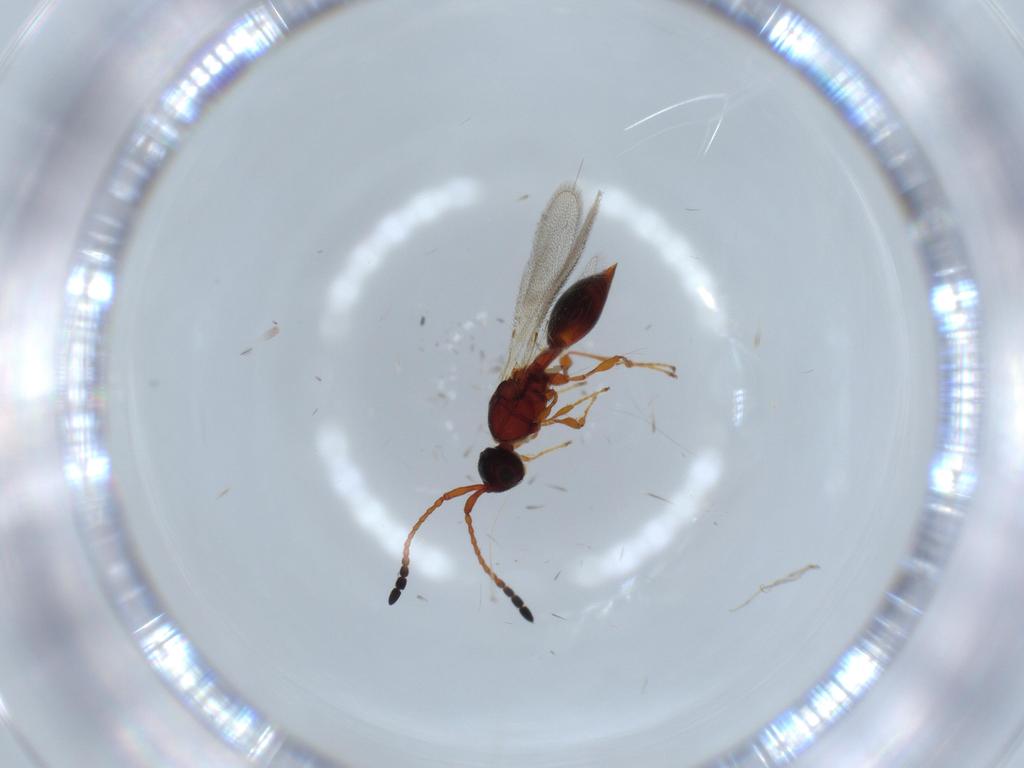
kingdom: Animalia
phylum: Arthropoda
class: Insecta
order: Hymenoptera
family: Diapriidae
